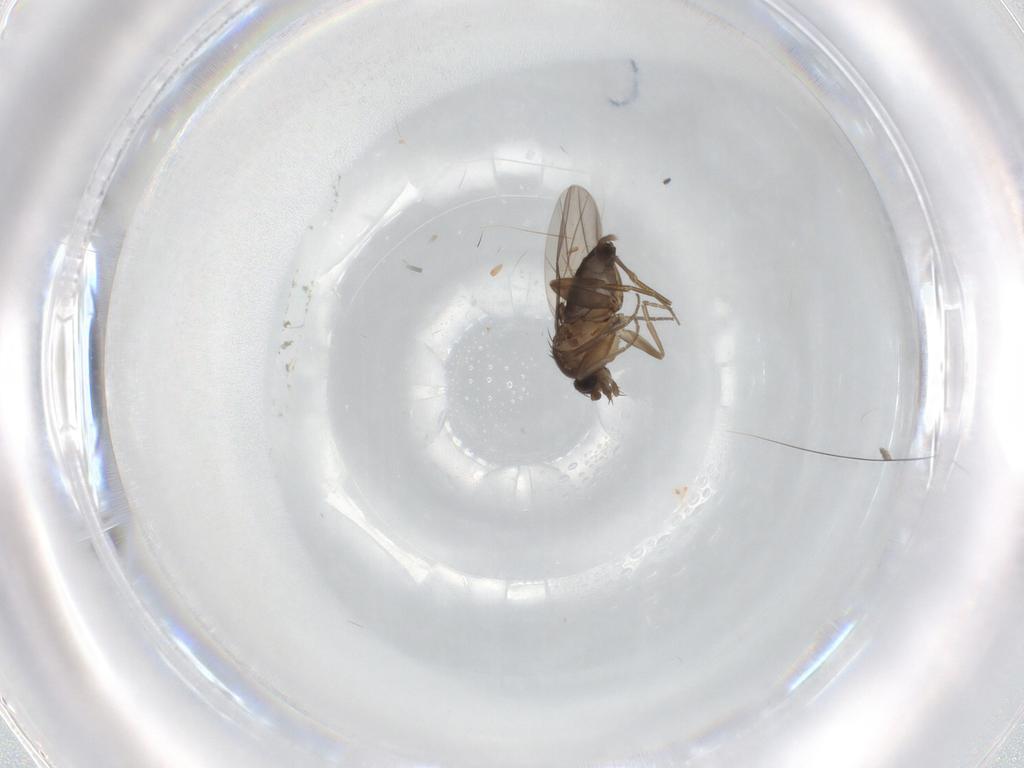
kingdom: Animalia
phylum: Arthropoda
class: Insecta
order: Diptera
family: Phoridae
